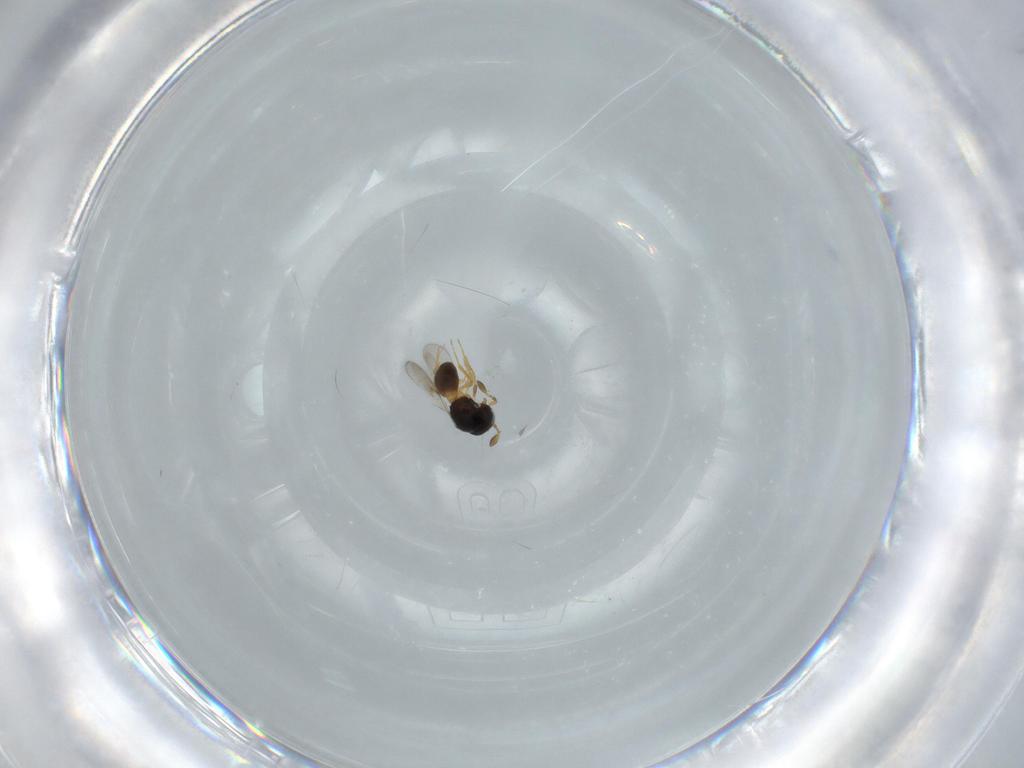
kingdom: Animalia
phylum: Arthropoda
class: Insecta
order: Hymenoptera
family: Scelionidae
